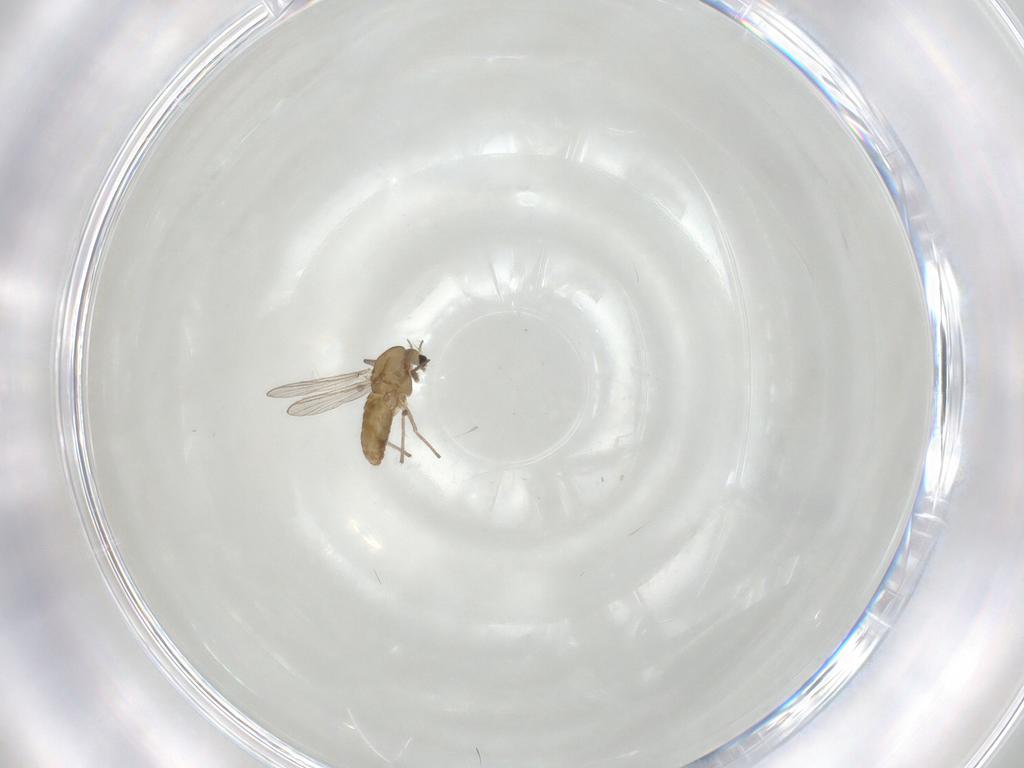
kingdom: Animalia
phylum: Arthropoda
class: Insecta
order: Diptera
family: Chironomidae
